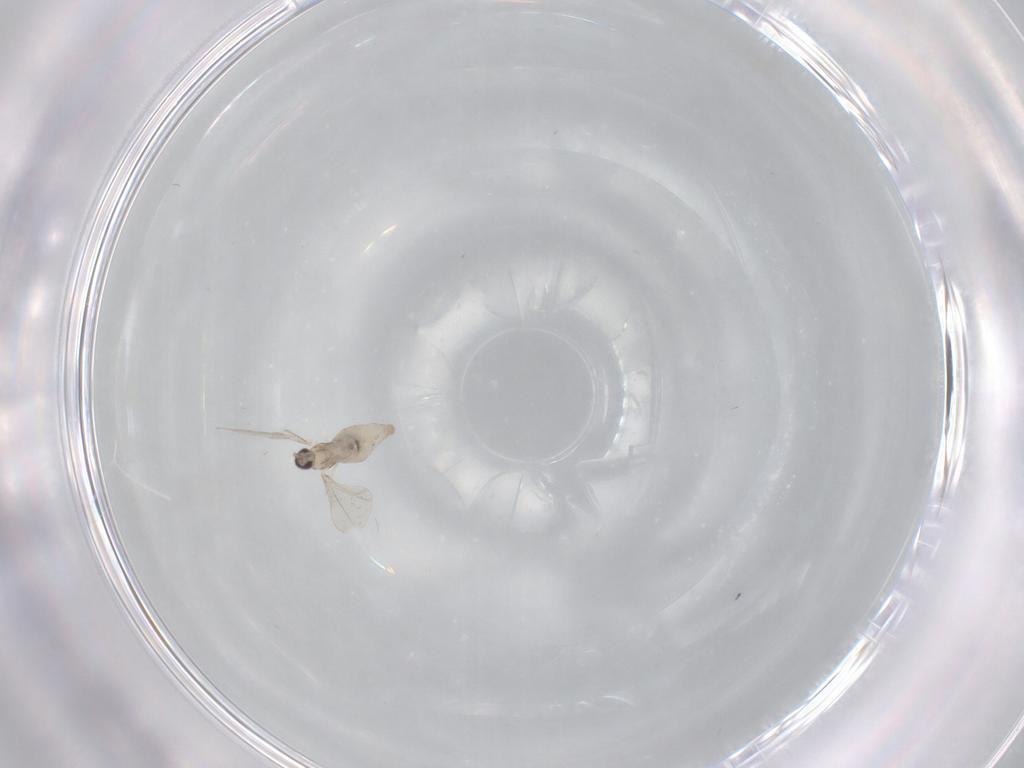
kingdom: Animalia
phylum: Arthropoda
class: Insecta
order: Diptera
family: Cecidomyiidae
